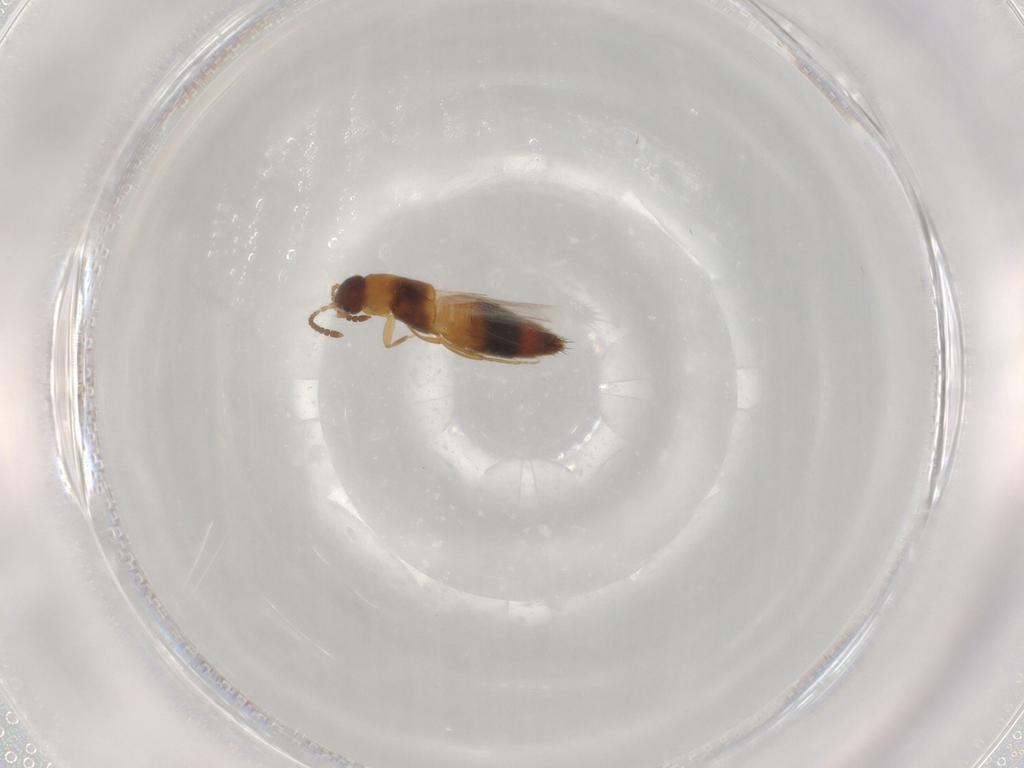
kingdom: Animalia
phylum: Arthropoda
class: Insecta
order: Coleoptera
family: Staphylinidae
